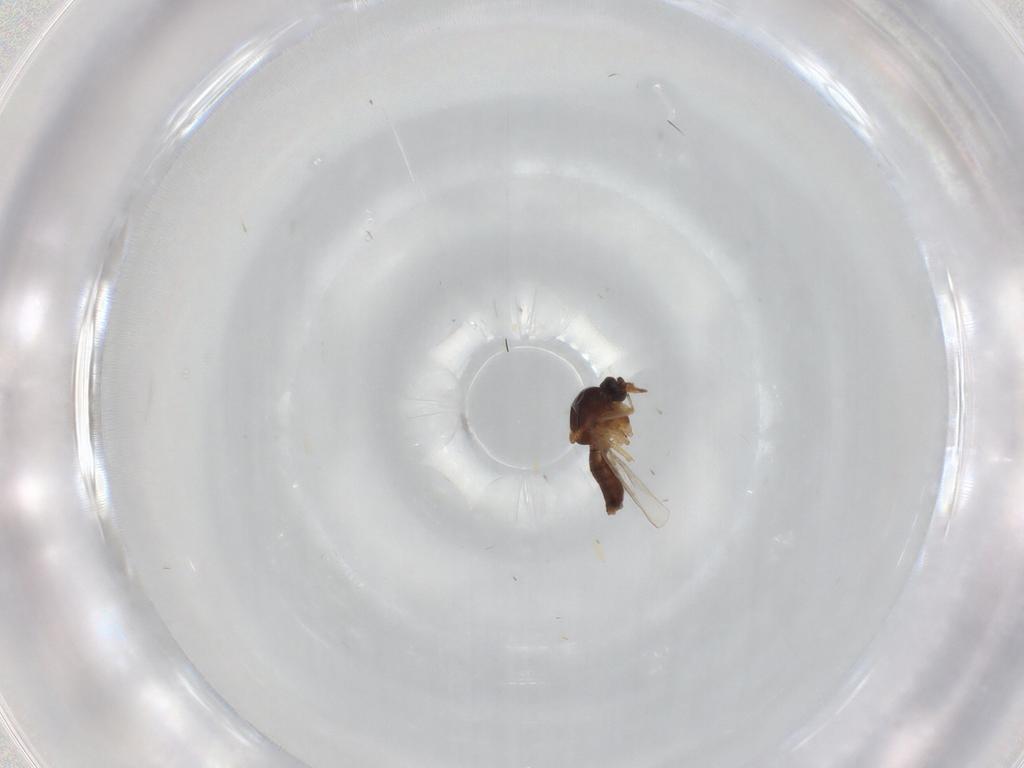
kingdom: Animalia
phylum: Arthropoda
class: Insecta
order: Diptera
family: Ceratopogonidae
